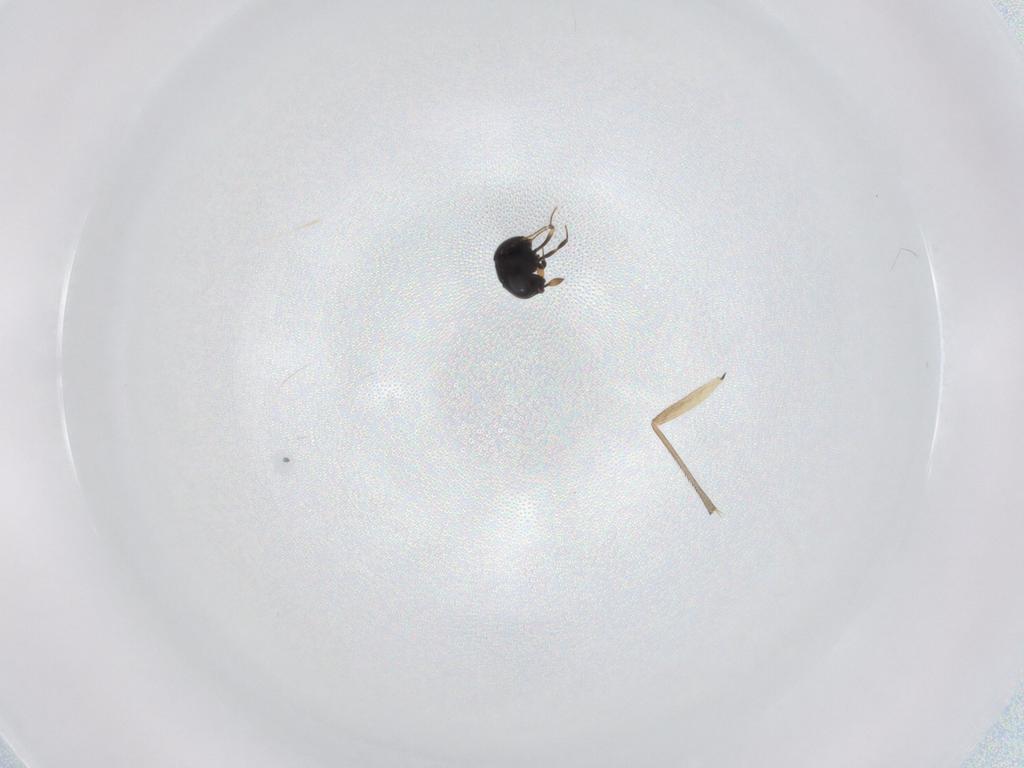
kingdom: Animalia
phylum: Arthropoda
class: Insecta
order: Hymenoptera
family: Scelionidae
